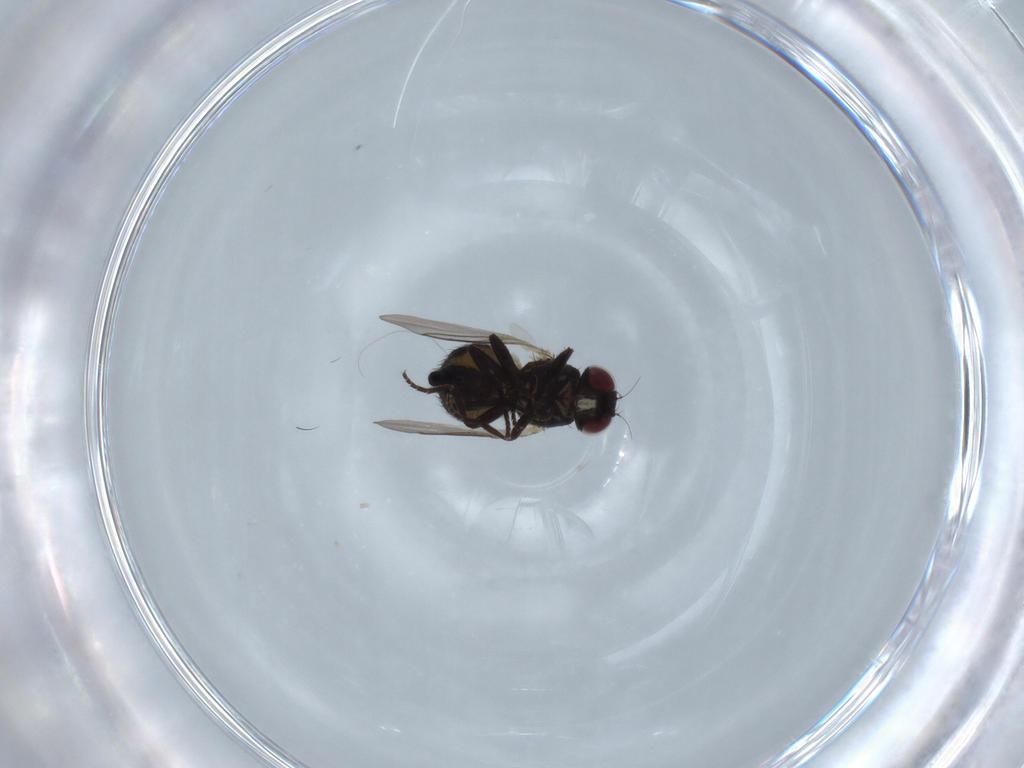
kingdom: Animalia
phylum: Arthropoda
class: Insecta
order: Diptera
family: Agromyzidae
